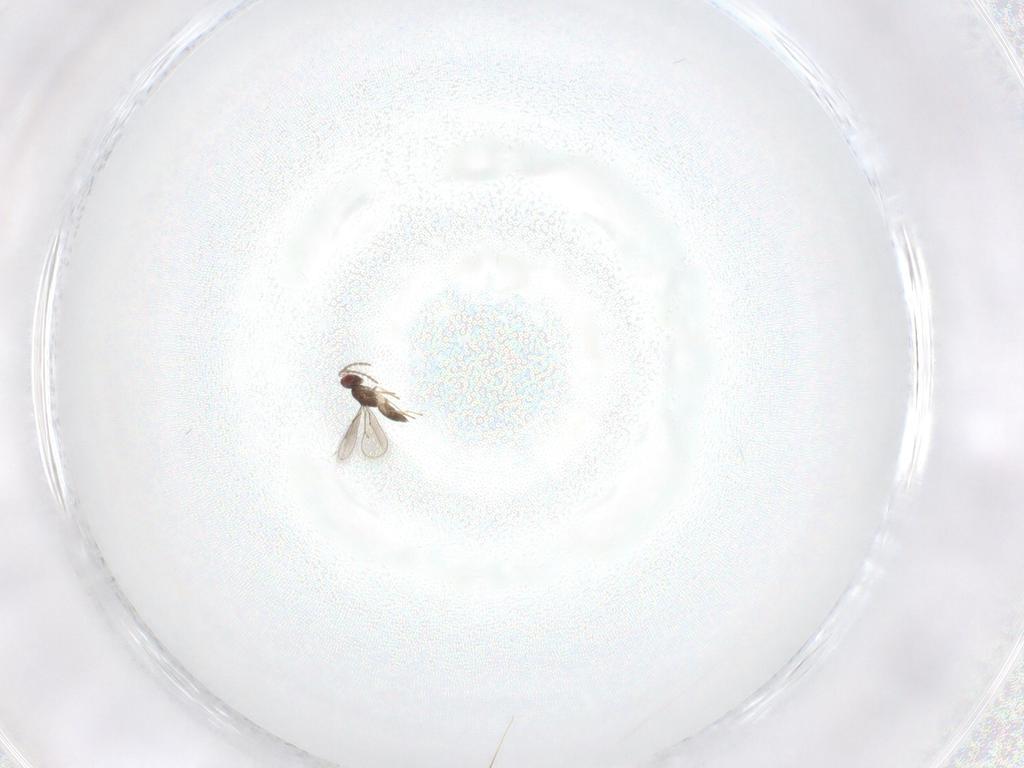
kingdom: Animalia
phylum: Arthropoda
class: Insecta
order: Hymenoptera
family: Eulophidae
